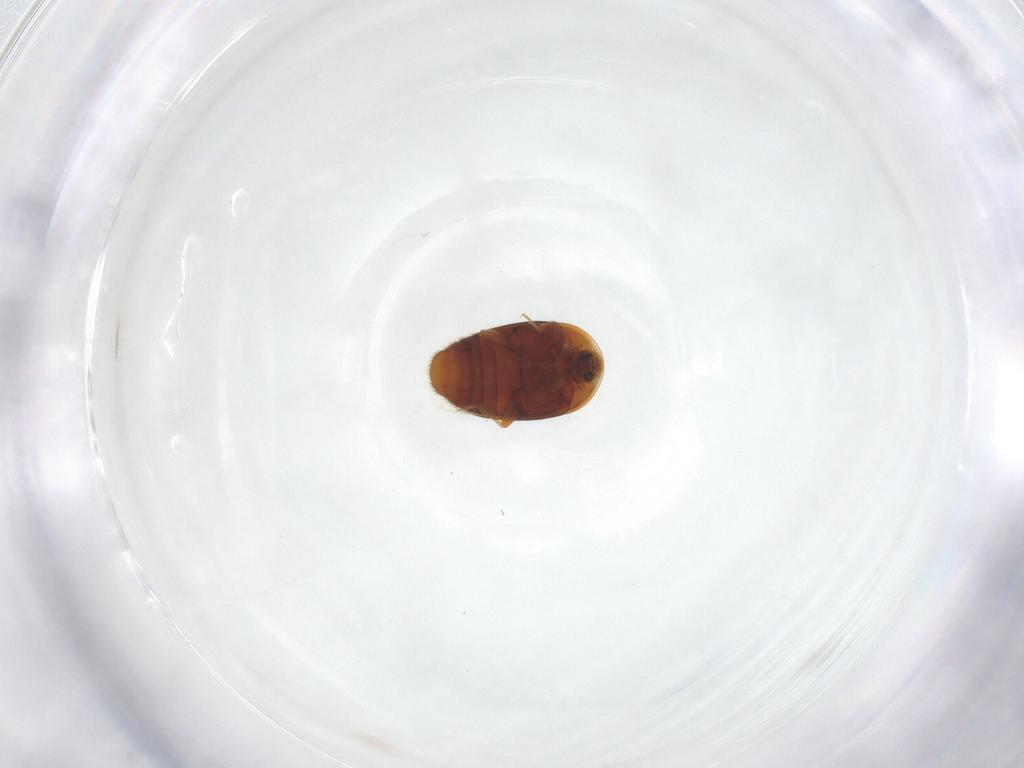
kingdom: Animalia
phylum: Arthropoda
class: Insecta
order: Coleoptera
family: Corylophidae
